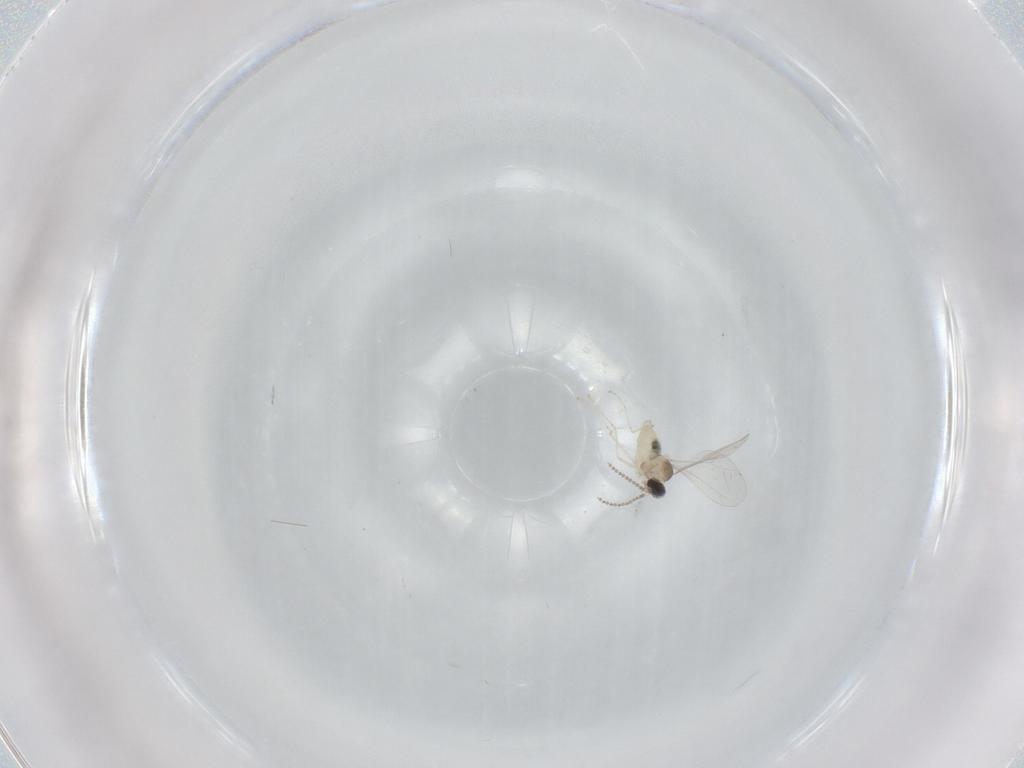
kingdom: Animalia
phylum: Arthropoda
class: Insecta
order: Diptera
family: Cecidomyiidae
